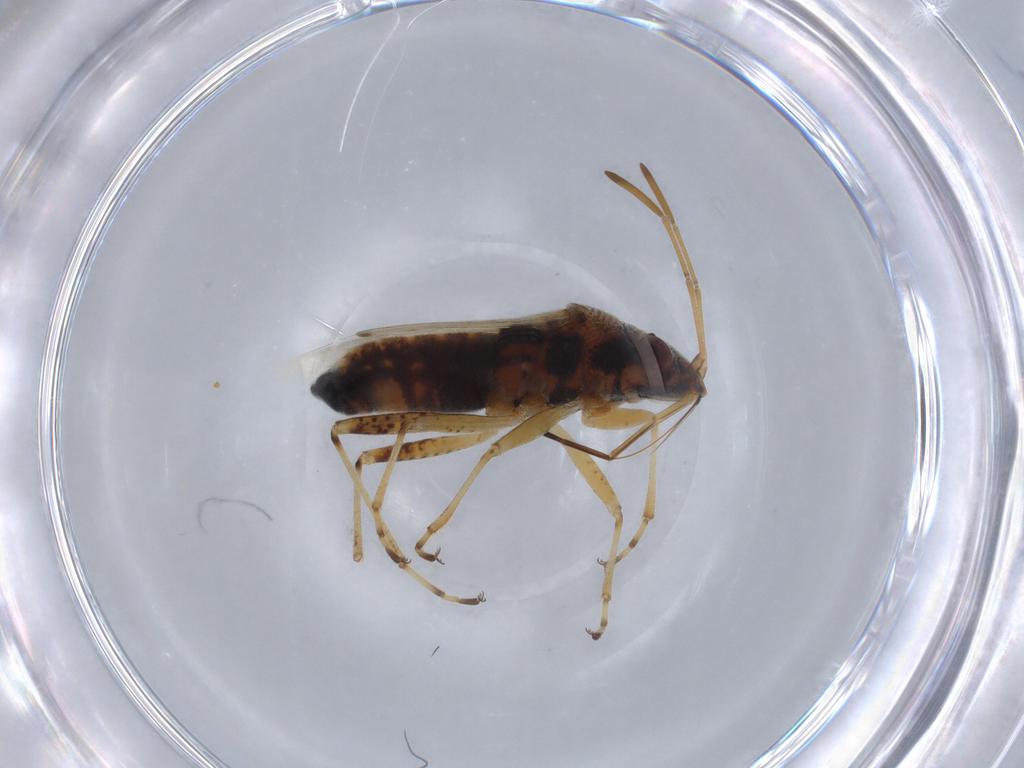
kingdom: Animalia
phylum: Arthropoda
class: Insecta
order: Hemiptera
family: Lygaeidae
